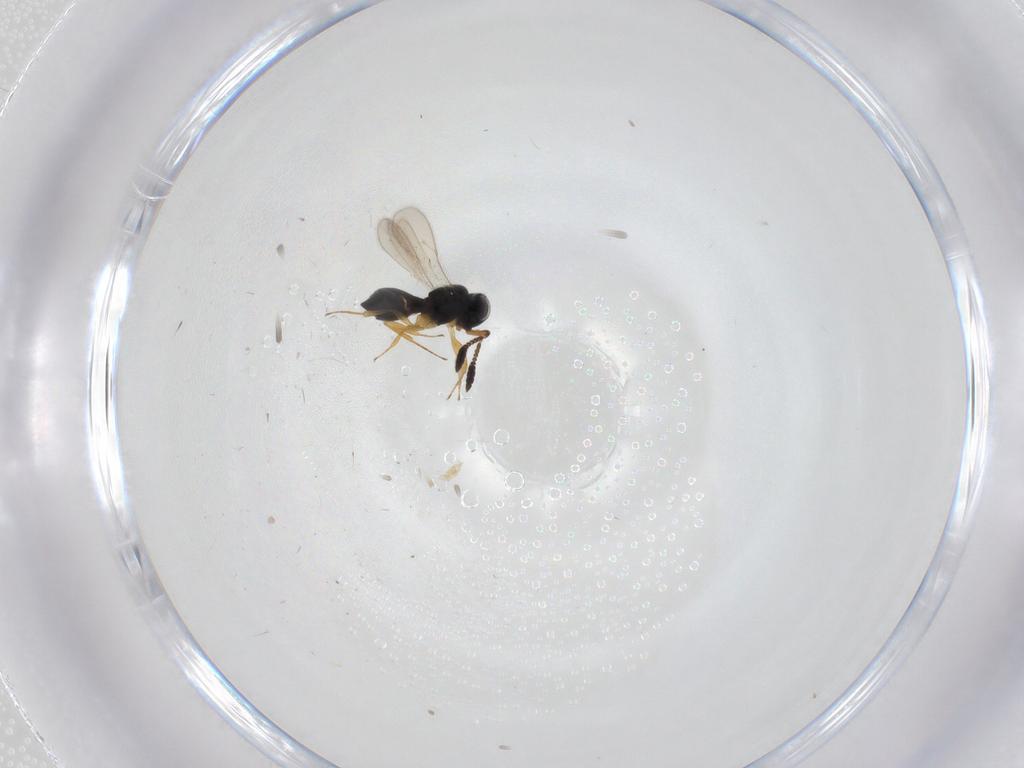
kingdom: Animalia
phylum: Arthropoda
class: Insecta
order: Hymenoptera
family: Scelionidae
